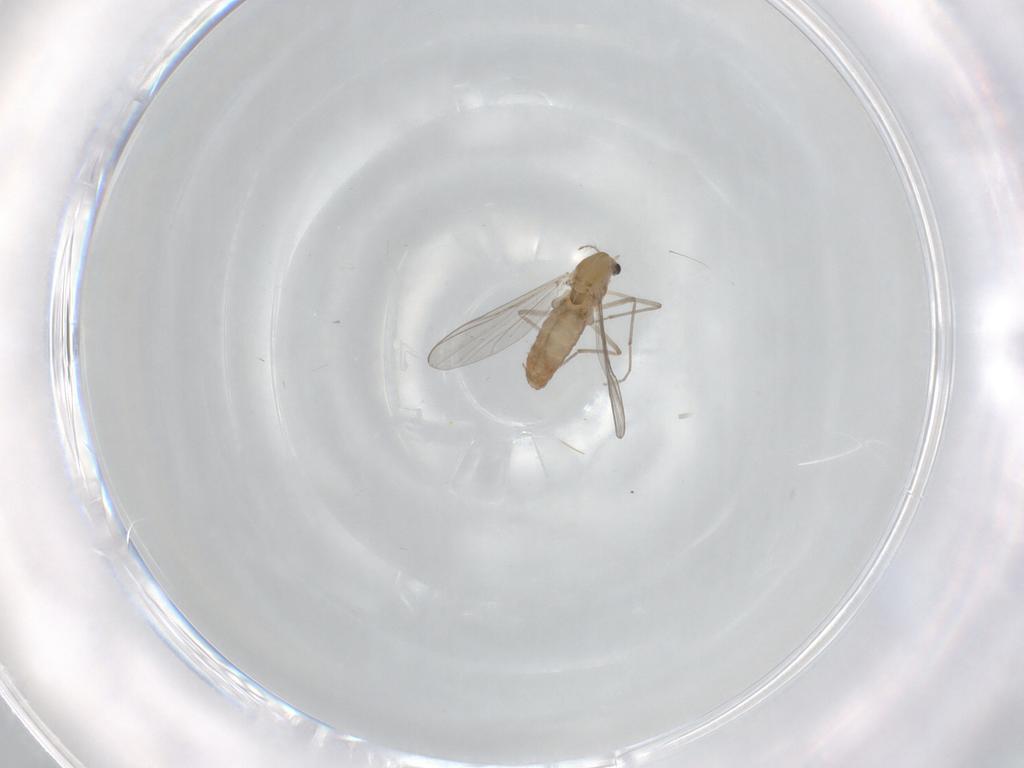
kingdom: Animalia
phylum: Arthropoda
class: Insecta
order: Diptera
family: Chironomidae
